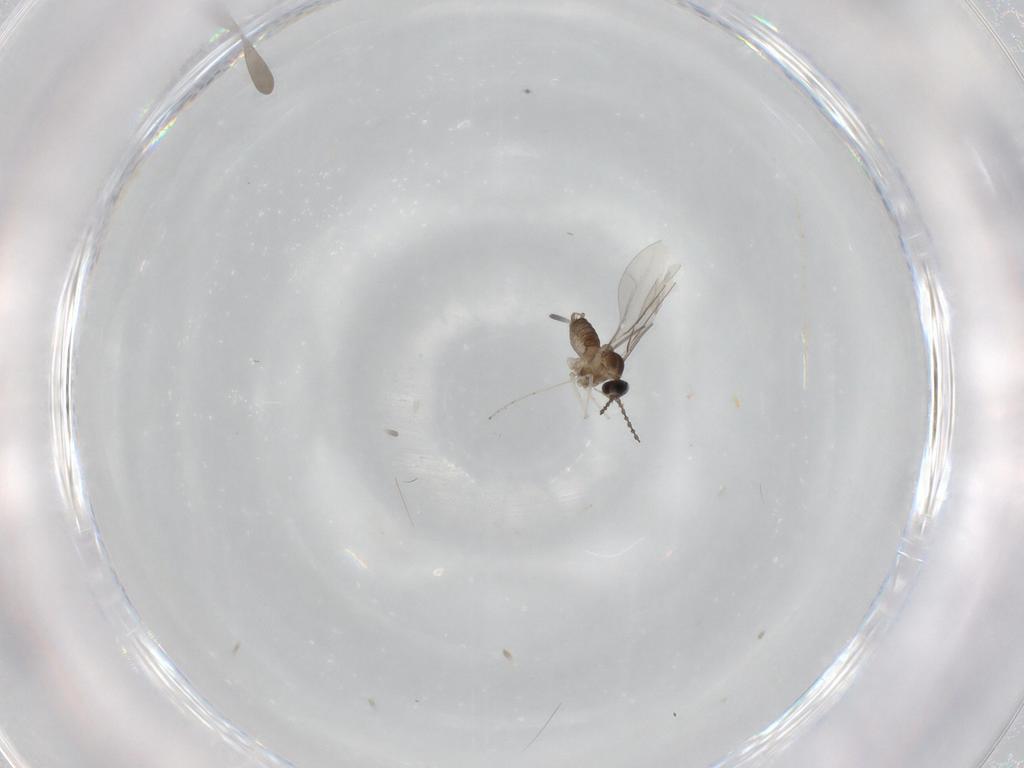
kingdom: Animalia
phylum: Arthropoda
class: Insecta
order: Diptera
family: Cecidomyiidae
